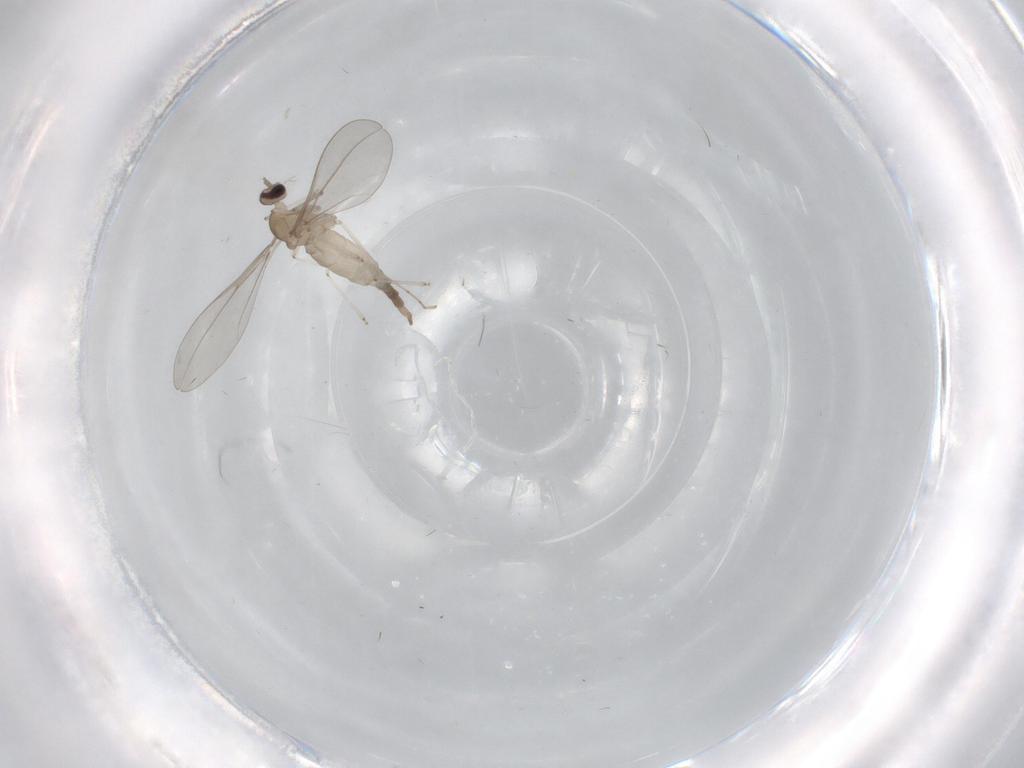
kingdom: Animalia
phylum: Arthropoda
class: Insecta
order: Diptera
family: Cecidomyiidae
